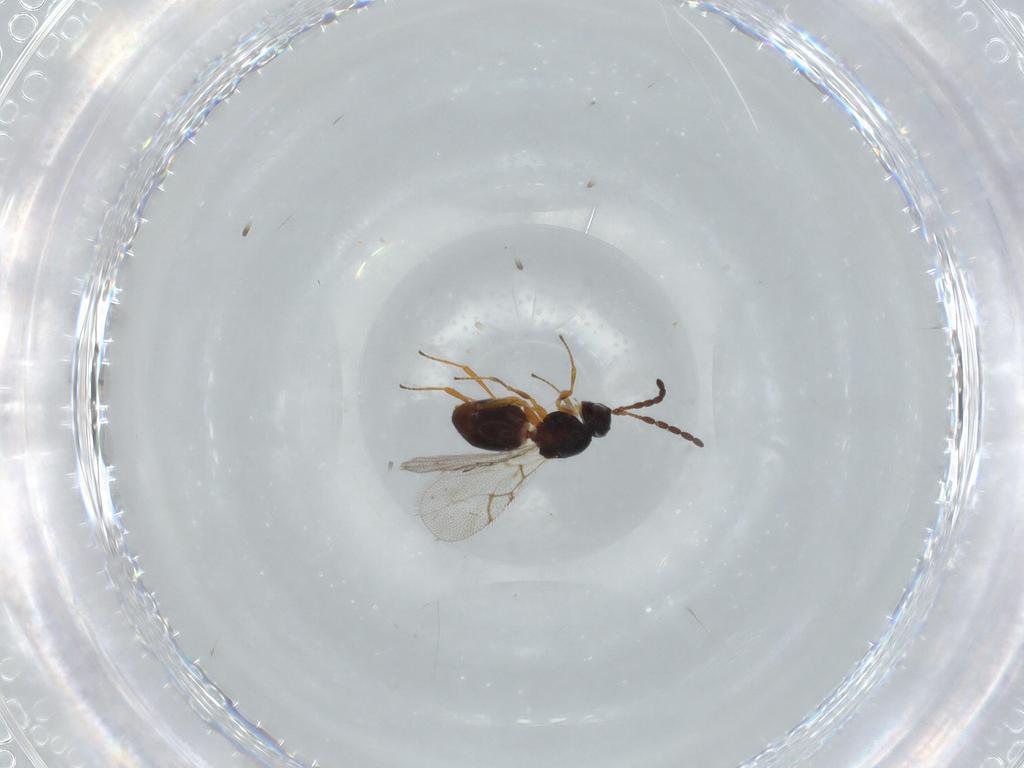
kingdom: Animalia
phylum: Arthropoda
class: Insecta
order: Hymenoptera
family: Figitidae
